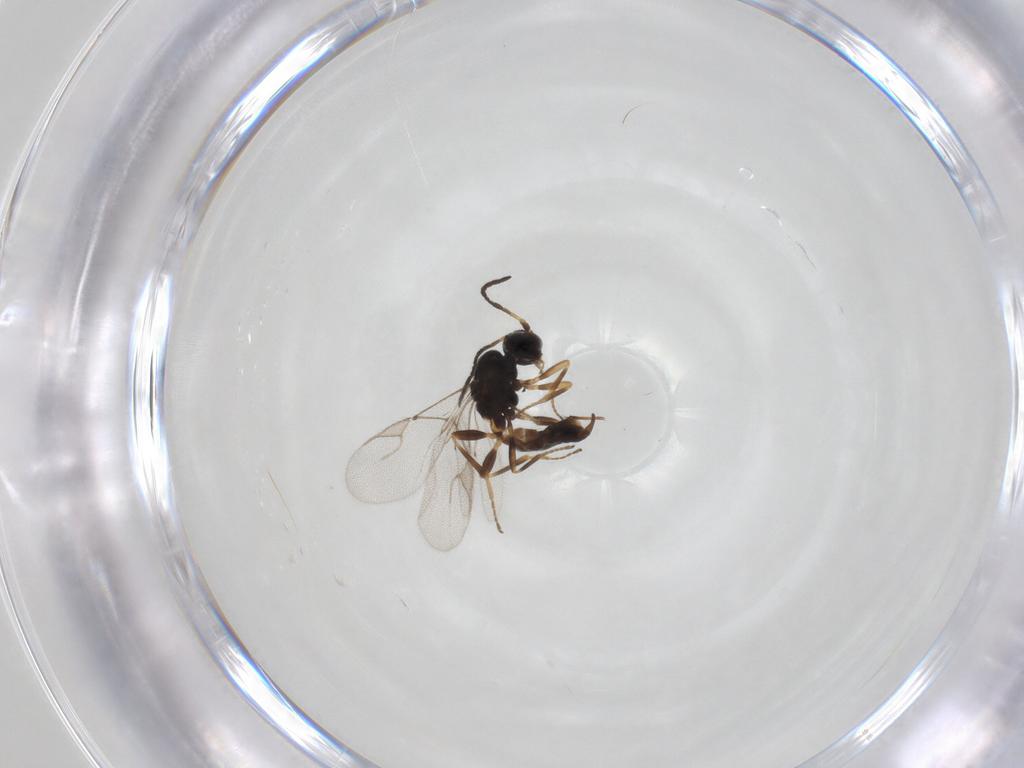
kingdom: Animalia
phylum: Arthropoda
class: Insecta
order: Hymenoptera
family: Braconidae
